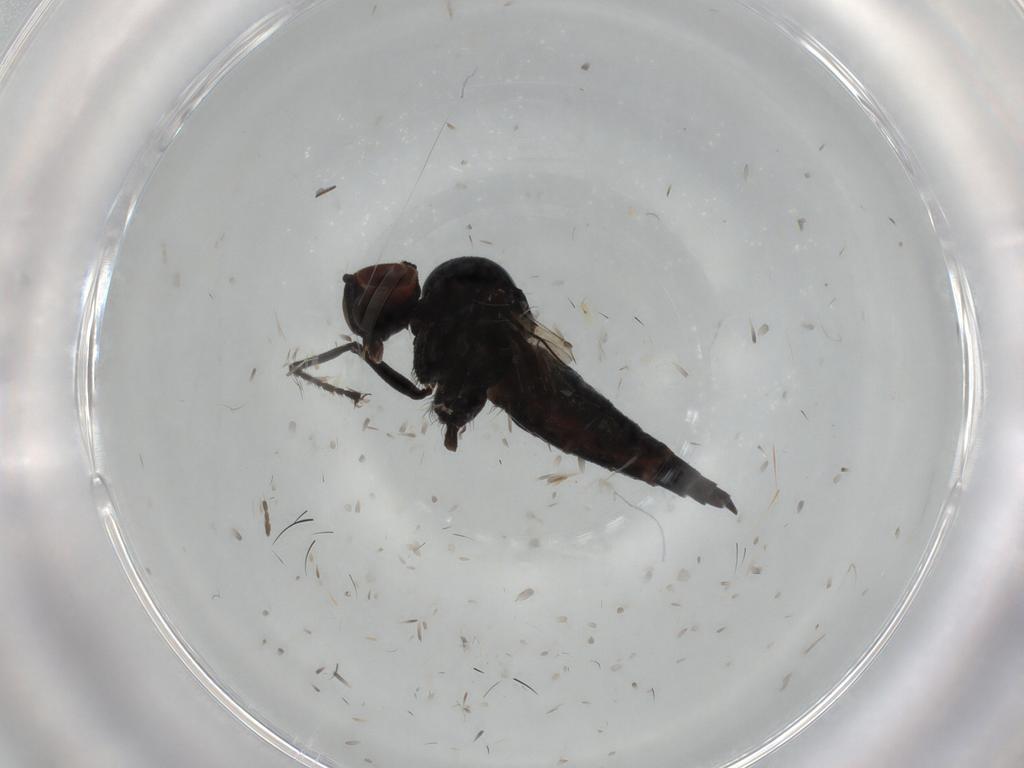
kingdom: Animalia
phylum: Arthropoda
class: Insecta
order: Diptera
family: Hybotidae
